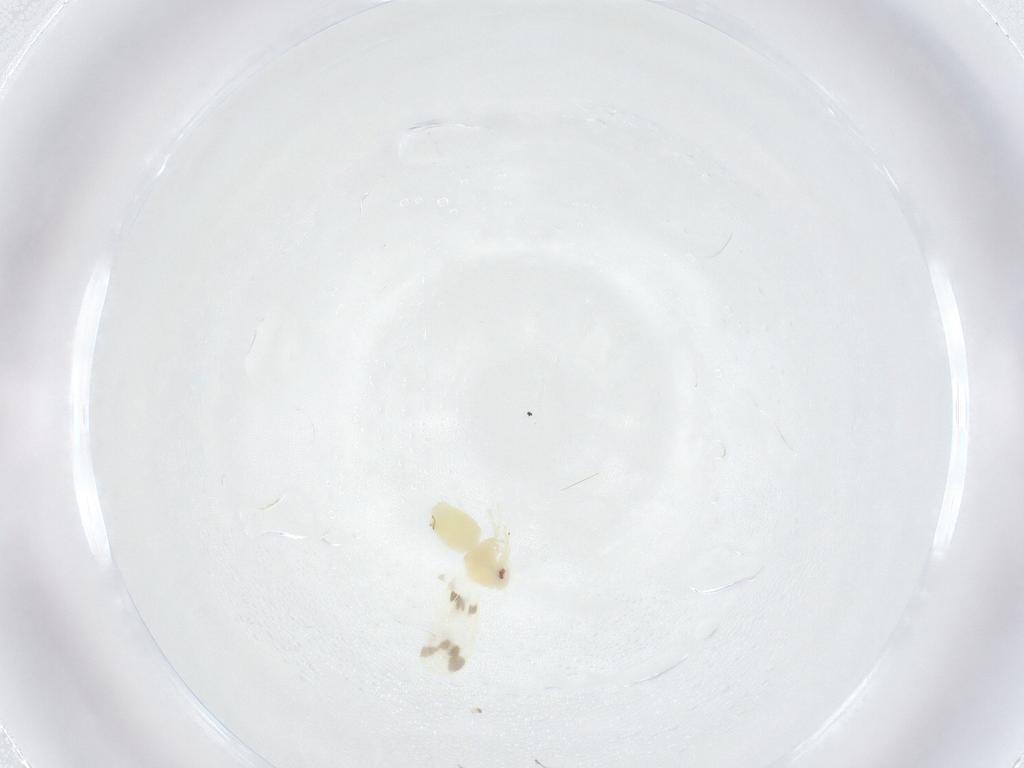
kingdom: Animalia
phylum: Arthropoda
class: Insecta
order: Hemiptera
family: Aleyrodidae
